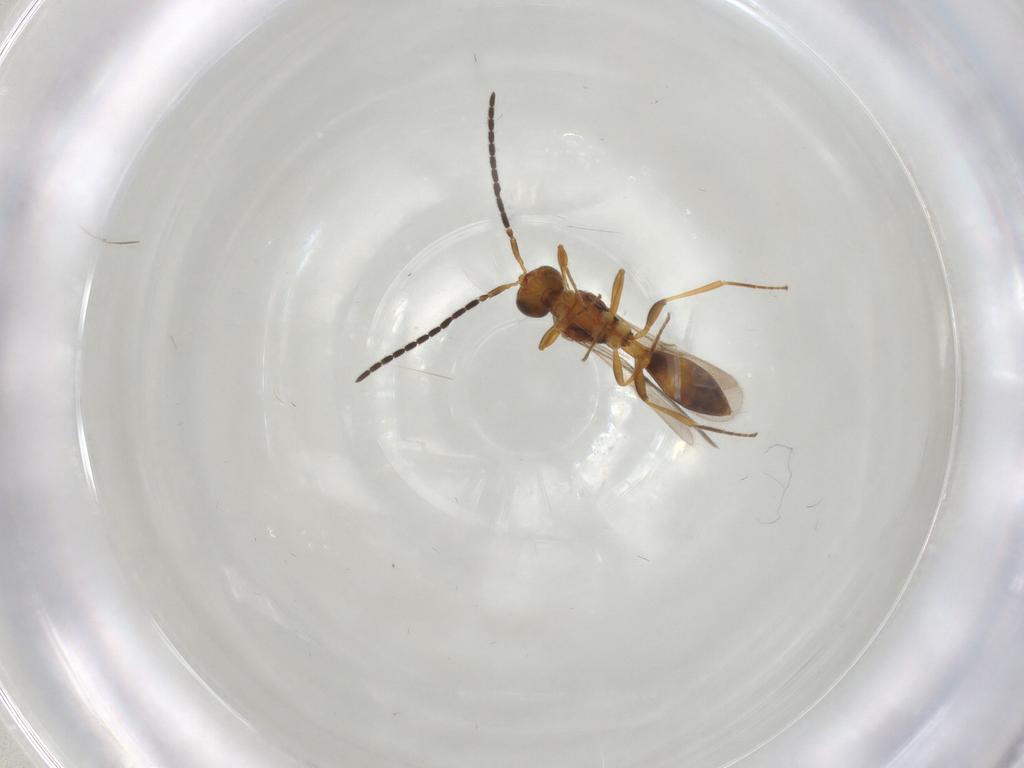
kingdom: Animalia
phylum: Arthropoda
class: Insecta
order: Hymenoptera
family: Scelionidae
